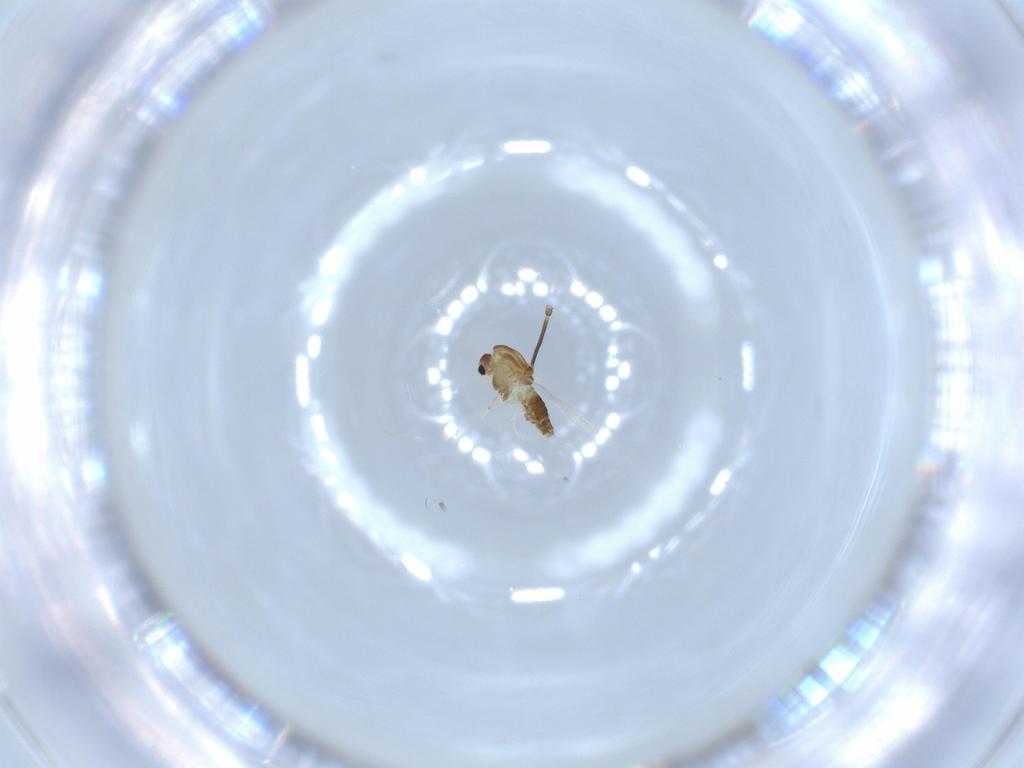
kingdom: Animalia
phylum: Arthropoda
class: Insecta
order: Diptera
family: Chironomidae
